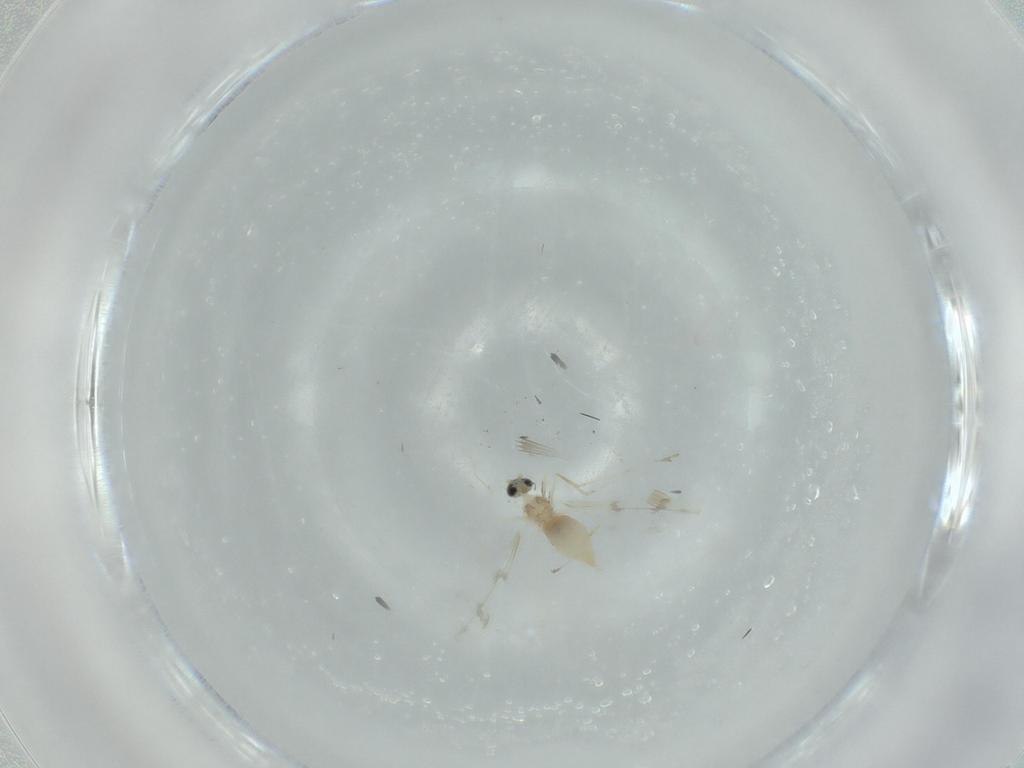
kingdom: Animalia
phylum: Arthropoda
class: Insecta
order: Diptera
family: Cecidomyiidae
